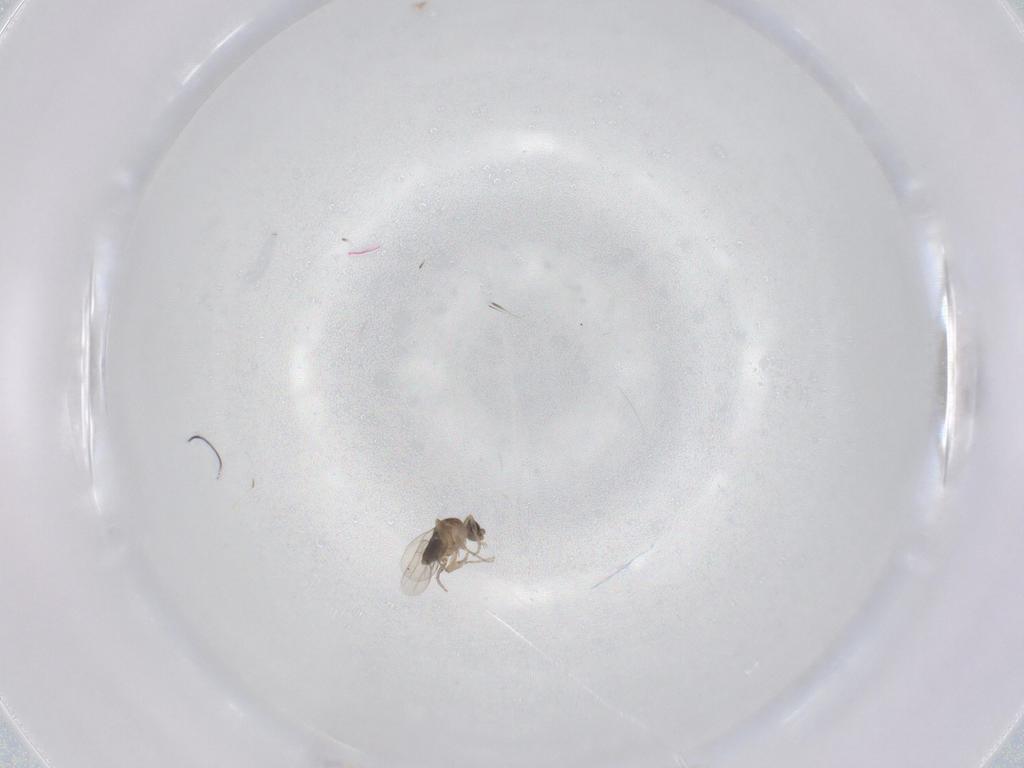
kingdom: Animalia
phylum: Arthropoda
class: Insecta
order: Diptera
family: Phoridae
